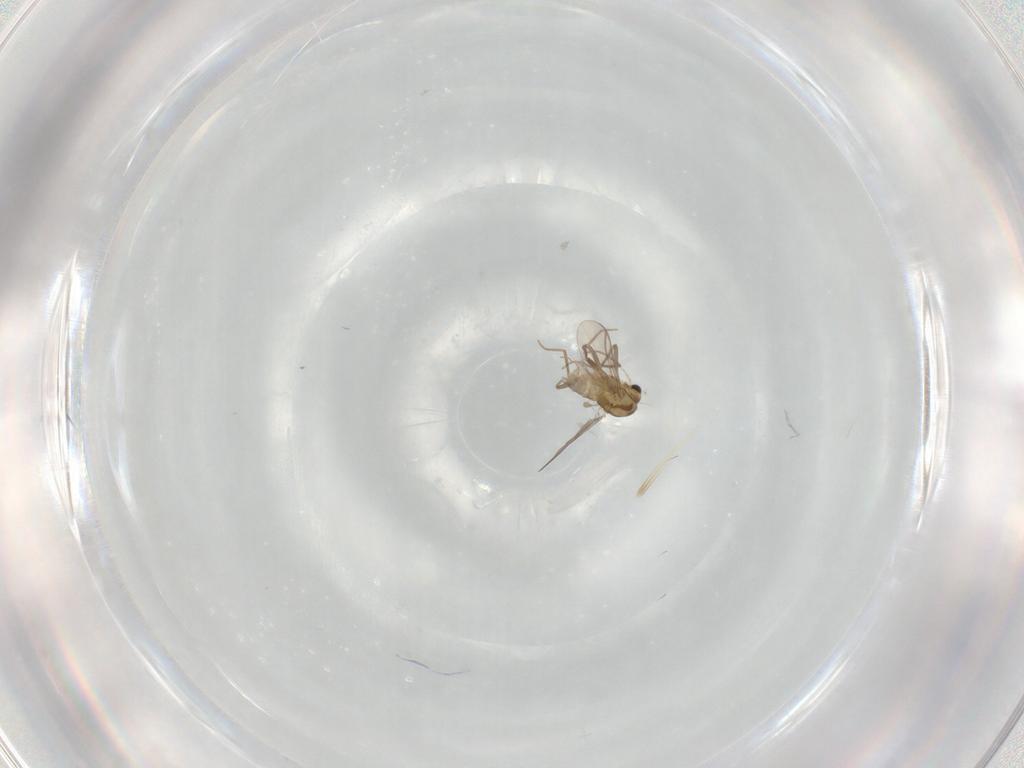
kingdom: Animalia
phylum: Arthropoda
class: Insecta
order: Diptera
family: Chironomidae
